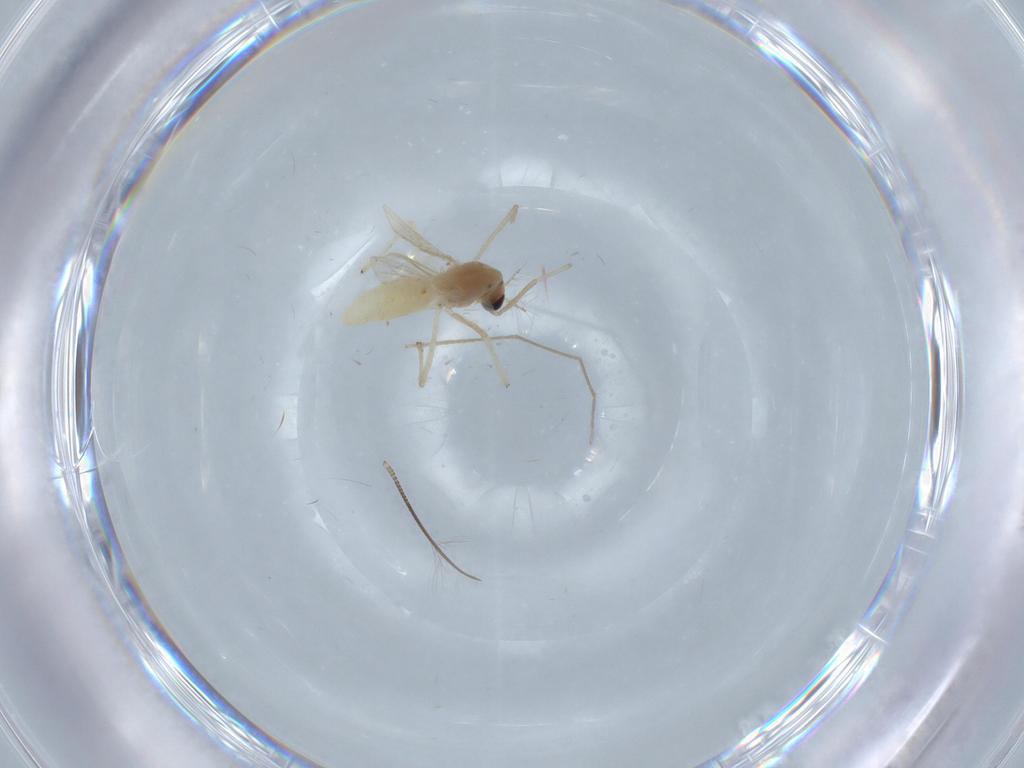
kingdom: Animalia
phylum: Arthropoda
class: Insecta
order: Diptera
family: Chironomidae
